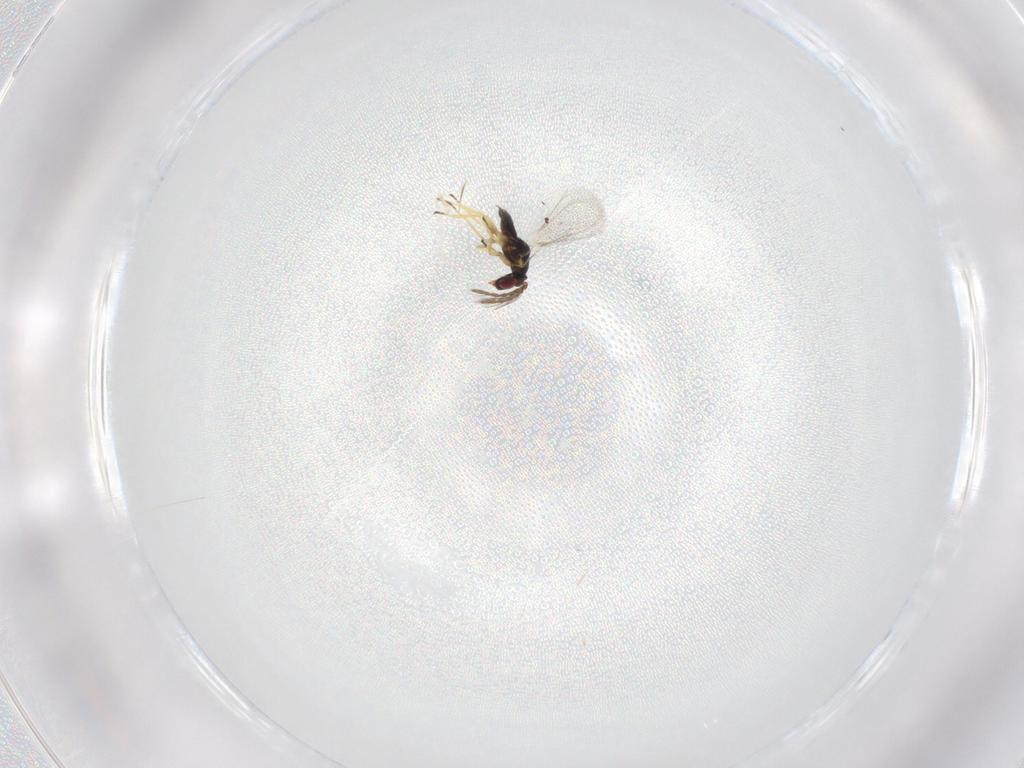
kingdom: Animalia
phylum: Arthropoda
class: Insecta
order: Hymenoptera
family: Eulophidae
